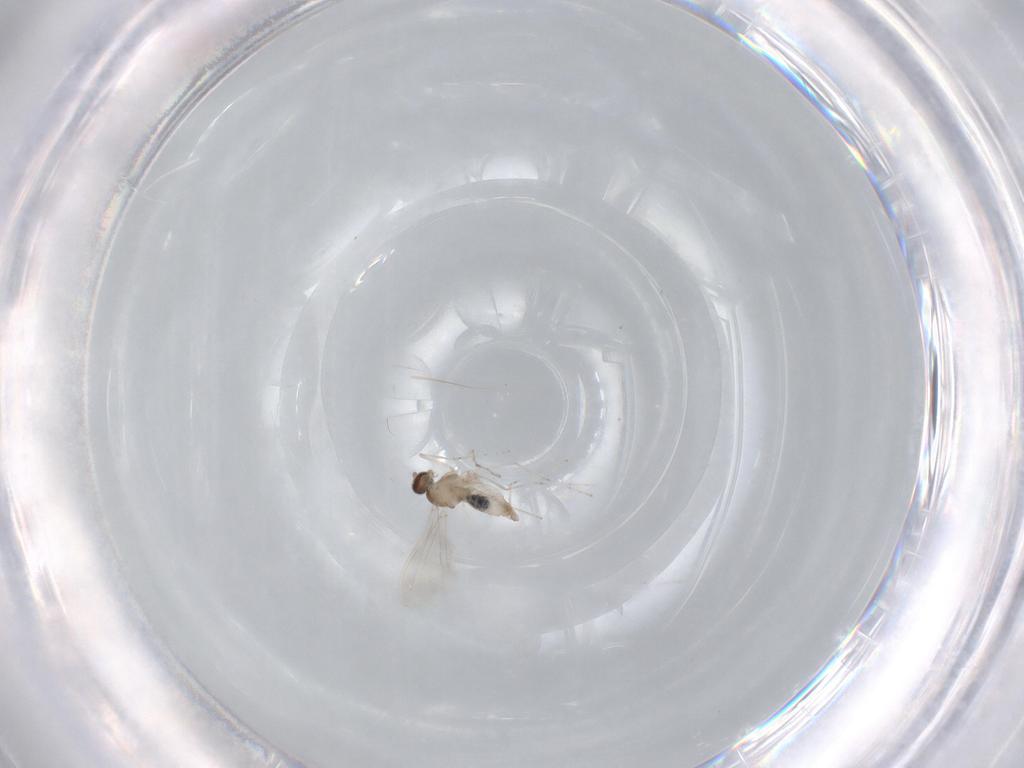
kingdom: Animalia
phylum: Arthropoda
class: Insecta
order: Diptera
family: Cecidomyiidae
